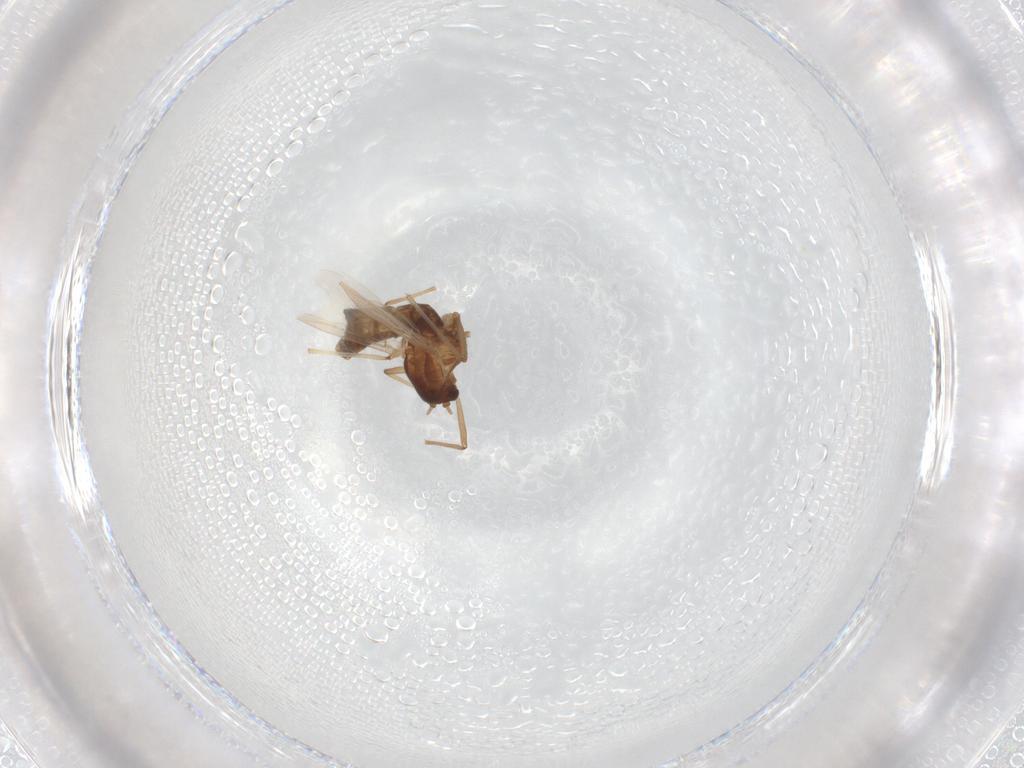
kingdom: Animalia
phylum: Arthropoda
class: Insecta
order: Diptera
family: Chironomidae
